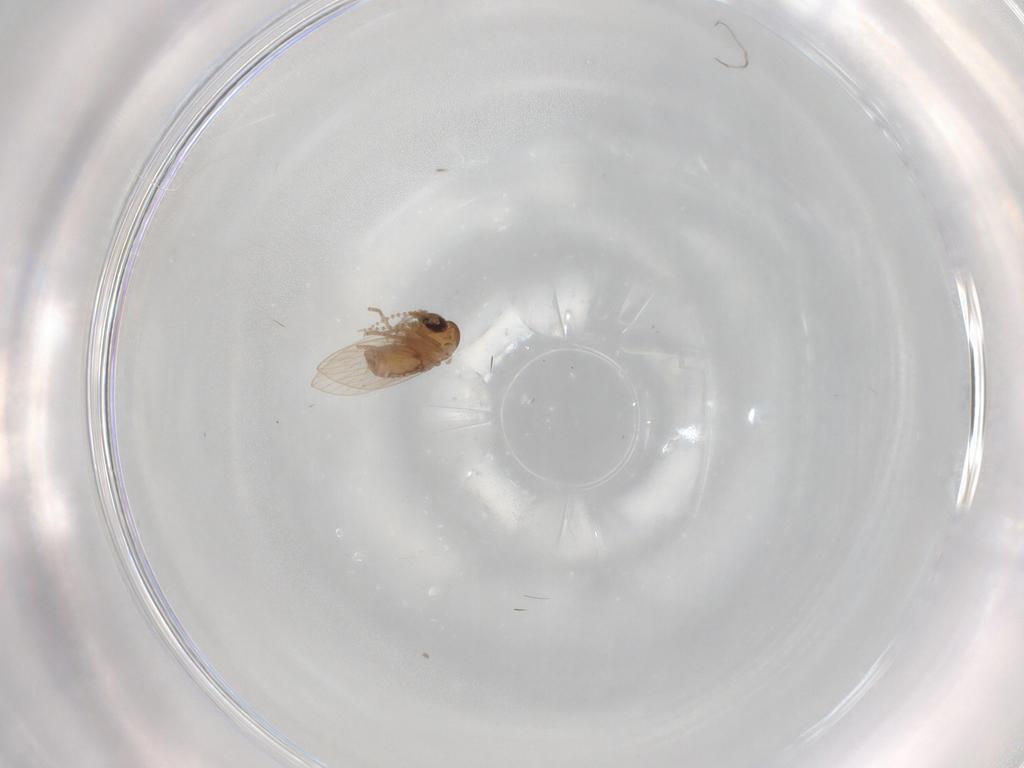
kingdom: Animalia
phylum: Arthropoda
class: Insecta
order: Diptera
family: Psychodidae
